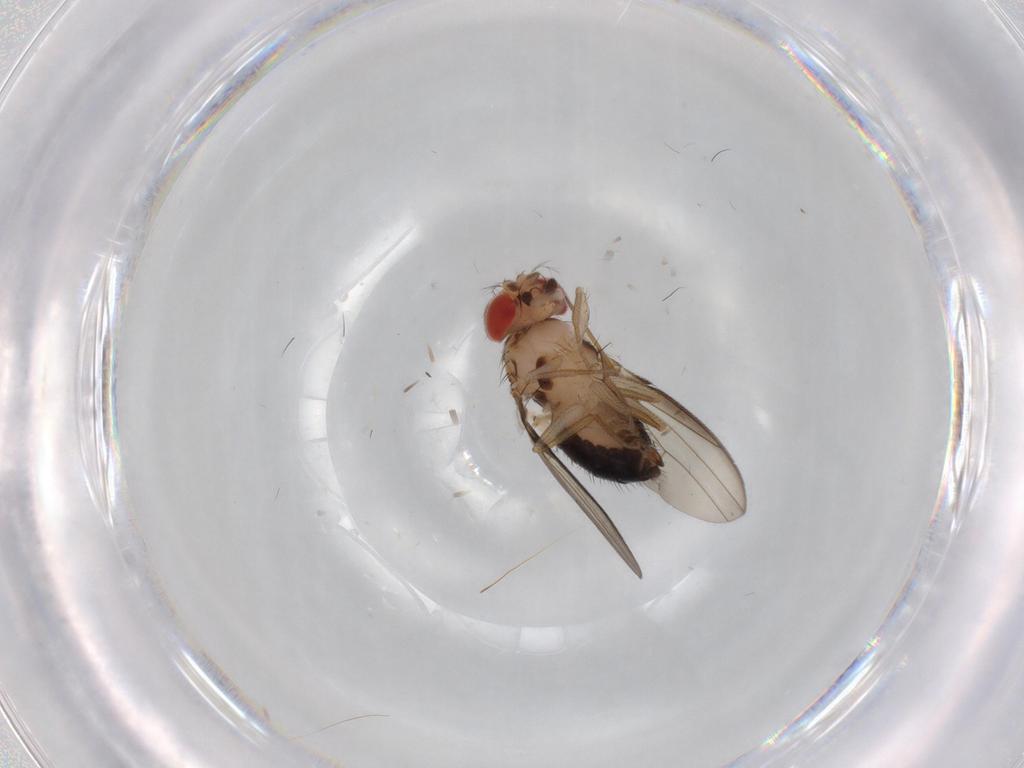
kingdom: Animalia
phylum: Arthropoda
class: Insecta
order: Diptera
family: Drosophilidae
